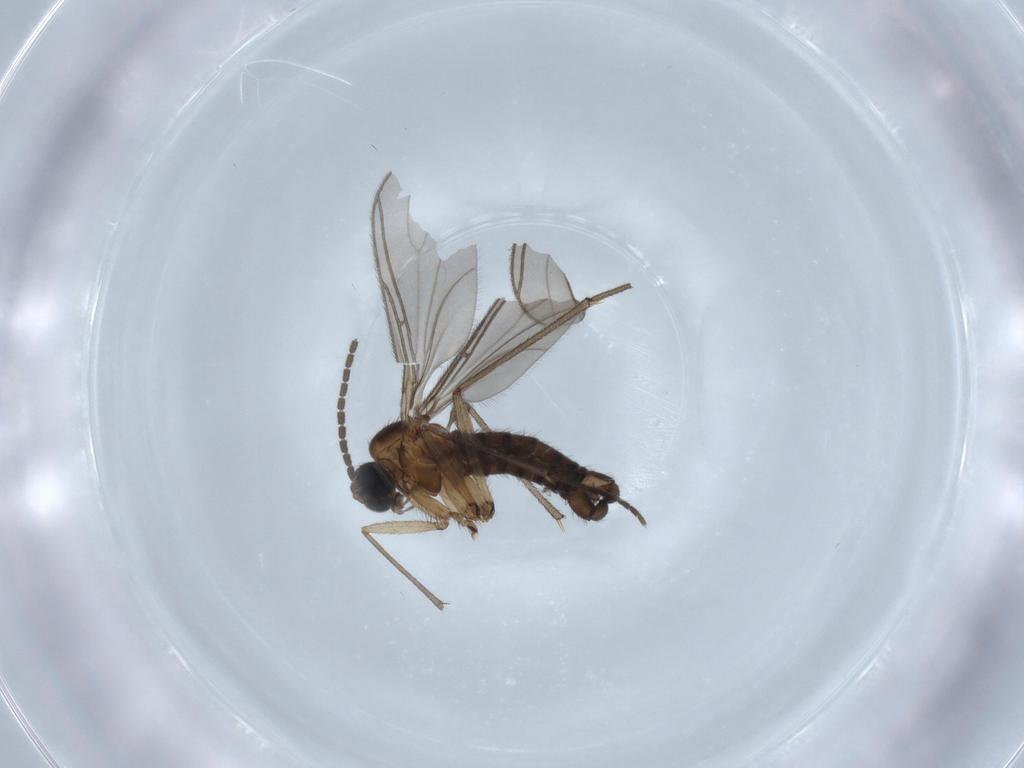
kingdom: Animalia
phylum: Arthropoda
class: Insecta
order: Diptera
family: Sciaridae
